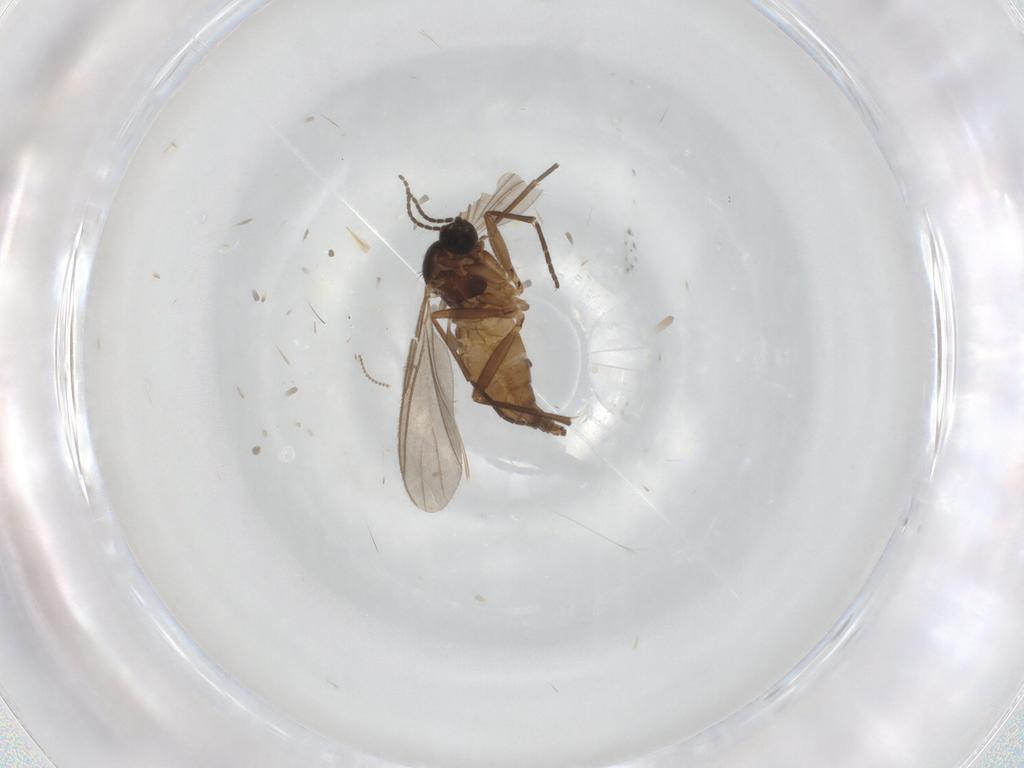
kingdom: Animalia
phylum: Arthropoda
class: Insecta
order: Diptera
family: Sciaridae
